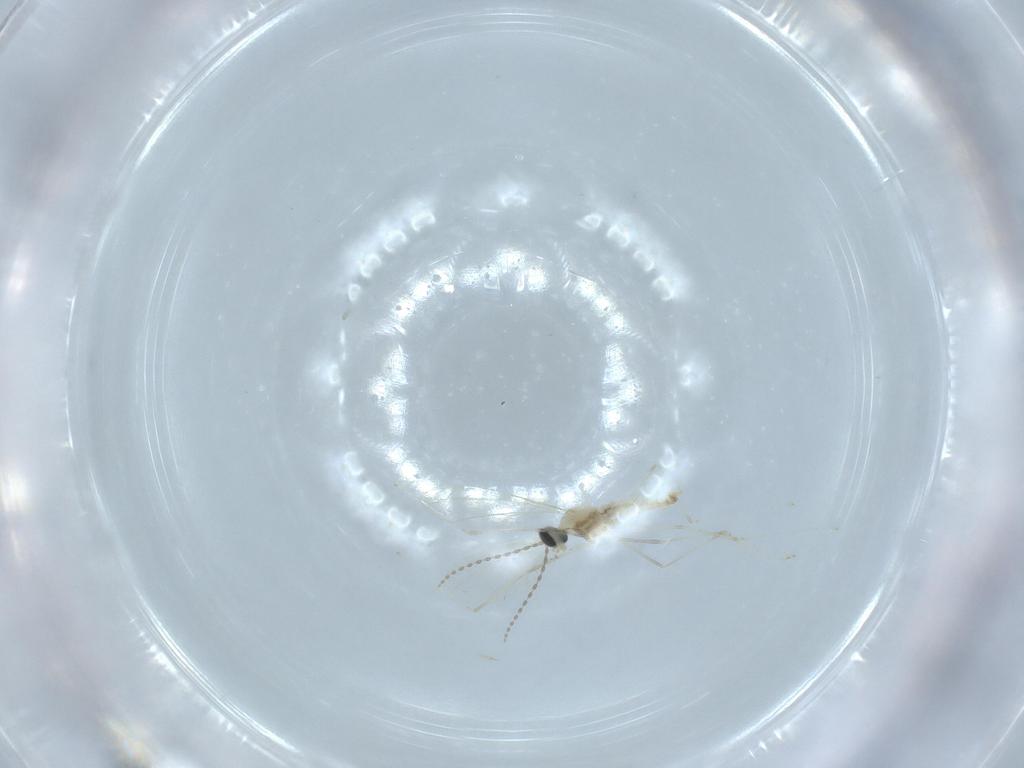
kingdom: Animalia
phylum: Arthropoda
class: Insecta
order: Diptera
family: Cecidomyiidae
